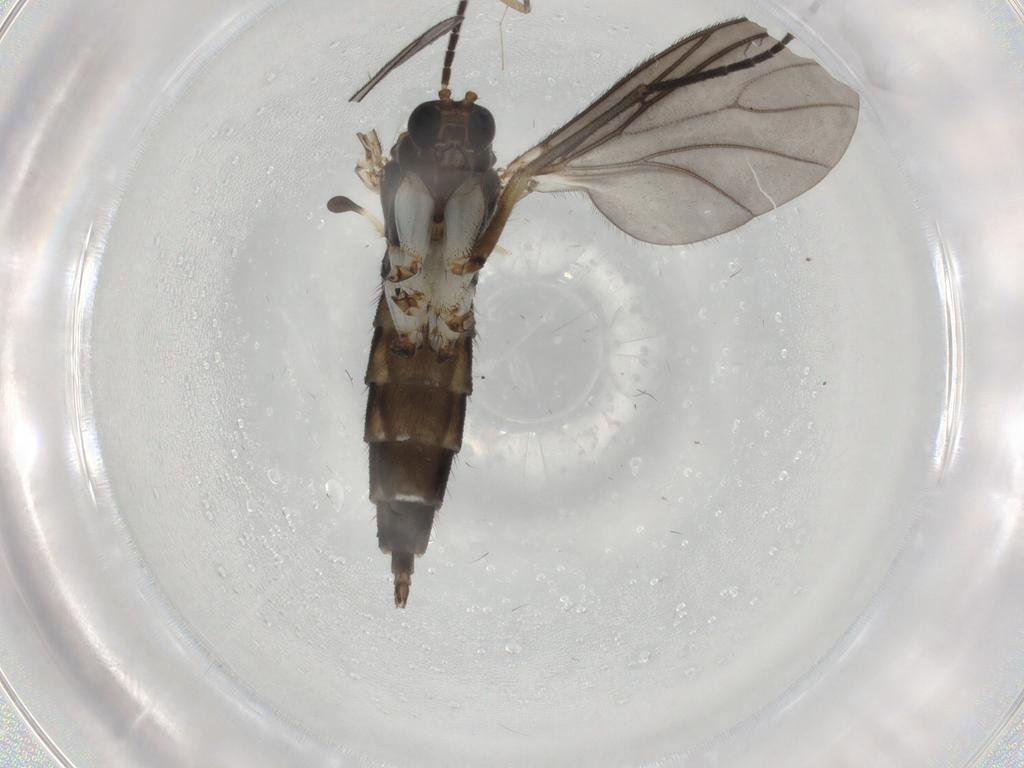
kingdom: Animalia
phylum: Arthropoda
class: Insecta
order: Diptera
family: Sciaridae
